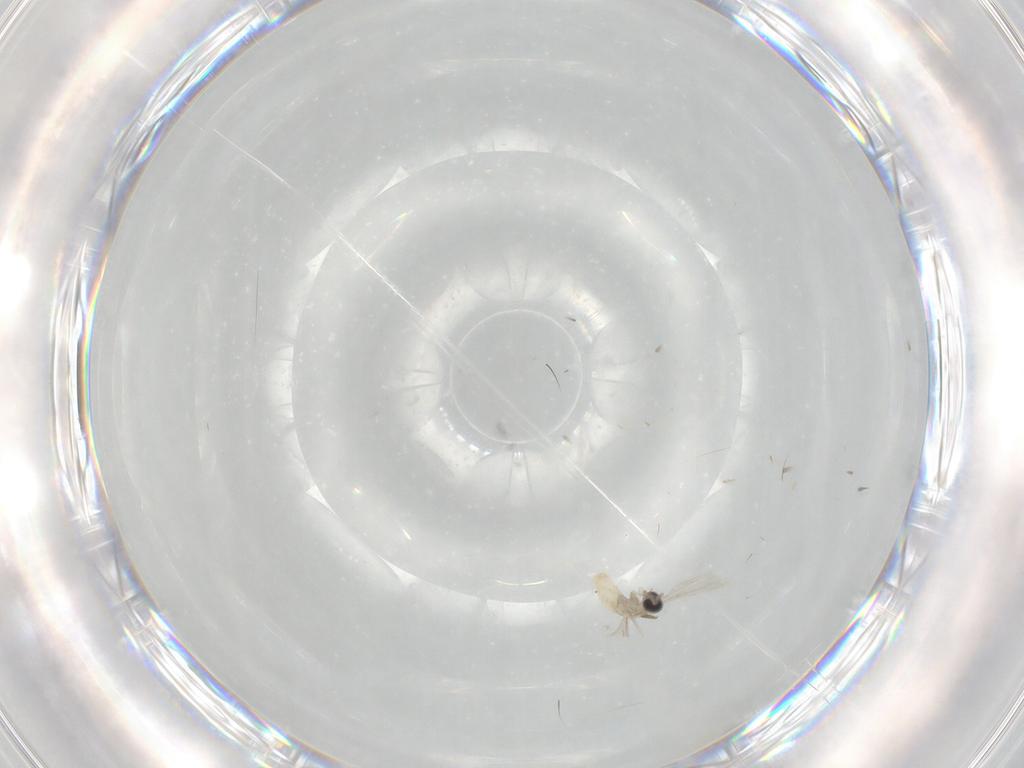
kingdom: Animalia
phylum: Arthropoda
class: Insecta
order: Diptera
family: Cecidomyiidae
